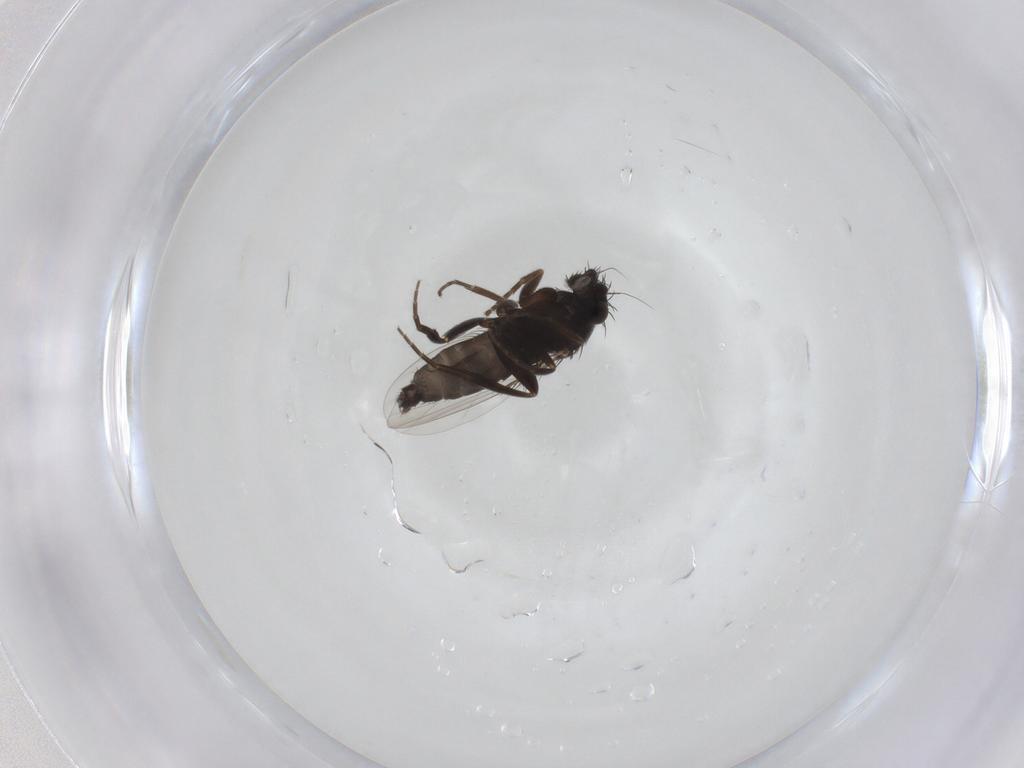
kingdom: Animalia
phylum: Arthropoda
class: Insecta
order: Diptera
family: Phoridae
